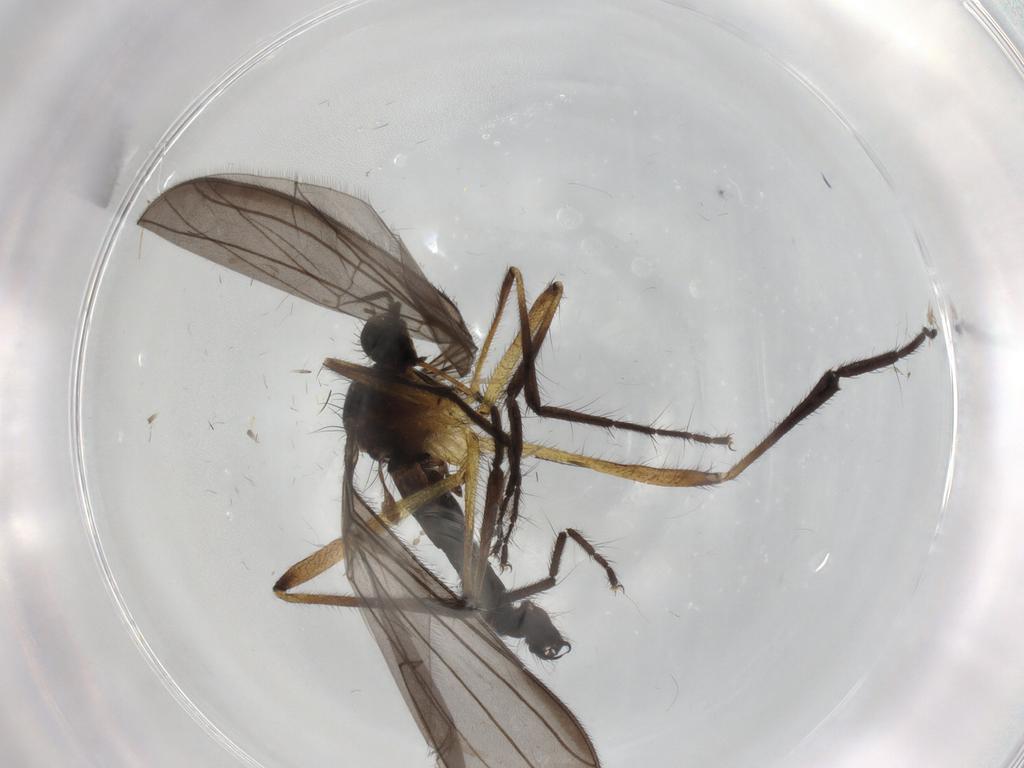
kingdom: Animalia
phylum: Arthropoda
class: Insecta
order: Diptera
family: Empididae
